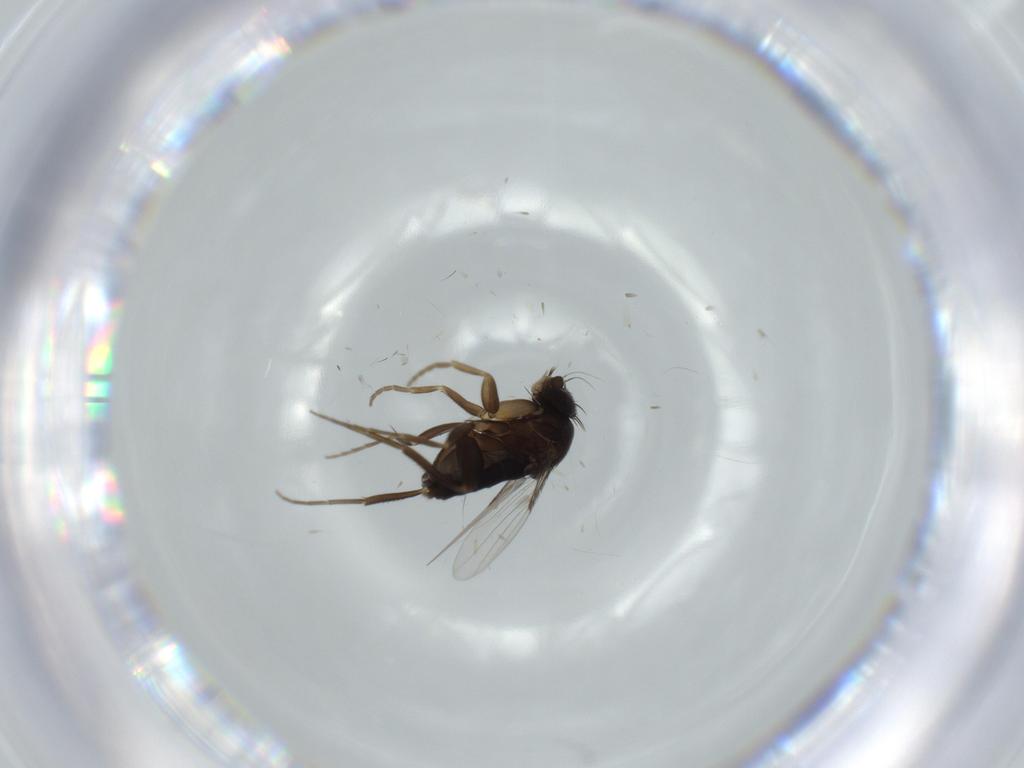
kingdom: Animalia
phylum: Arthropoda
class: Insecta
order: Diptera
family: Phoridae
